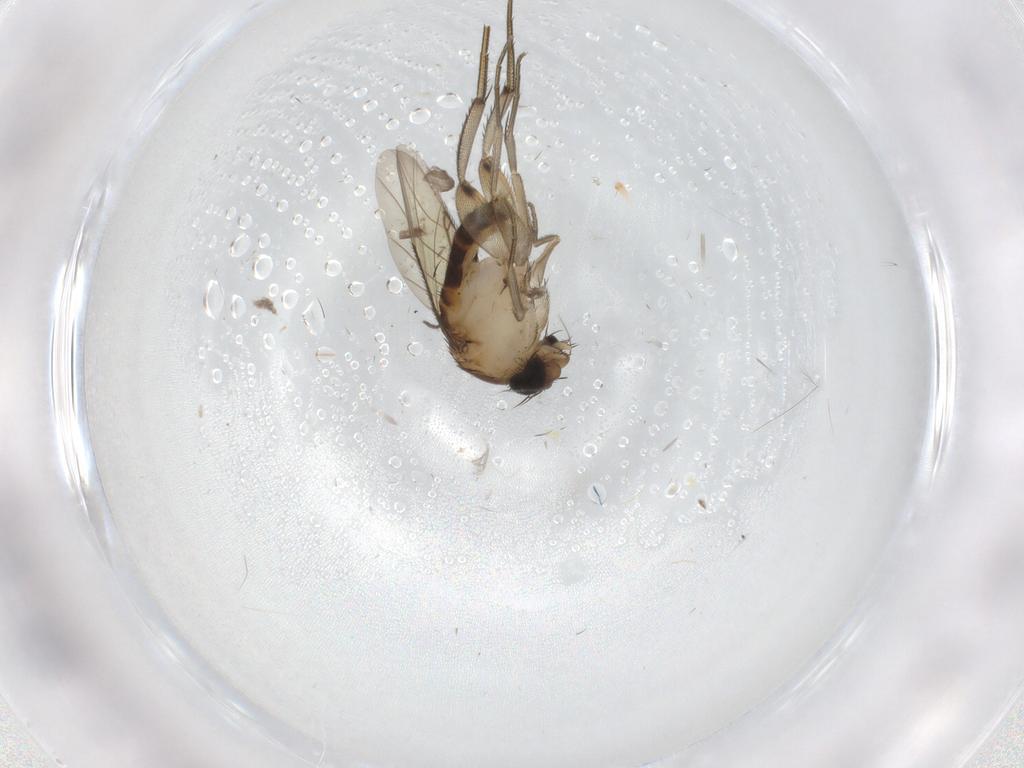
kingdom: Animalia
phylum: Arthropoda
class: Insecta
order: Diptera
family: Phoridae
